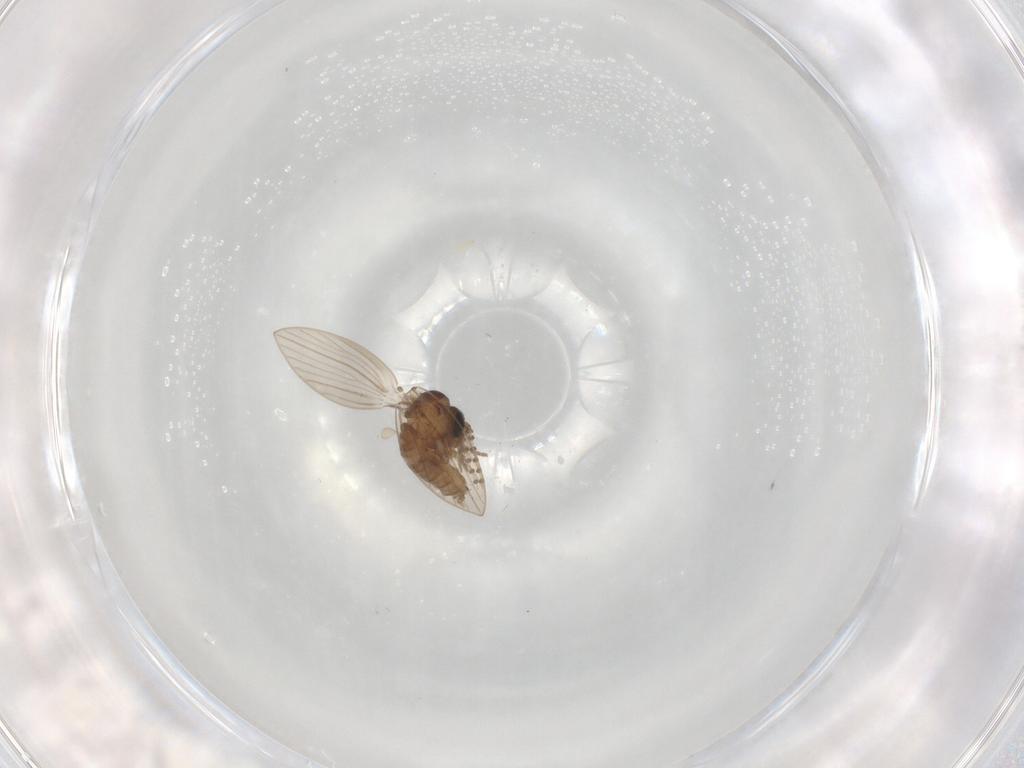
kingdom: Animalia
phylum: Arthropoda
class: Insecta
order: Diptera
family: Psychodidae
